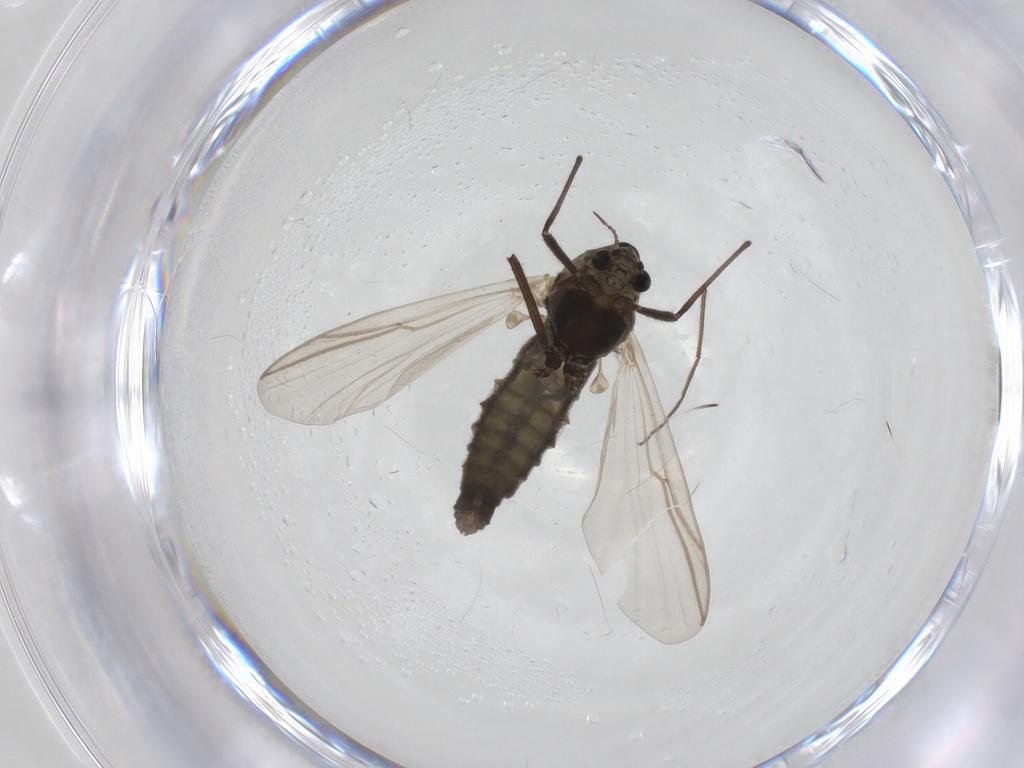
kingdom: Animalia
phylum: Arthropoda
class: Insecta
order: Diptera
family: Chironomidae
